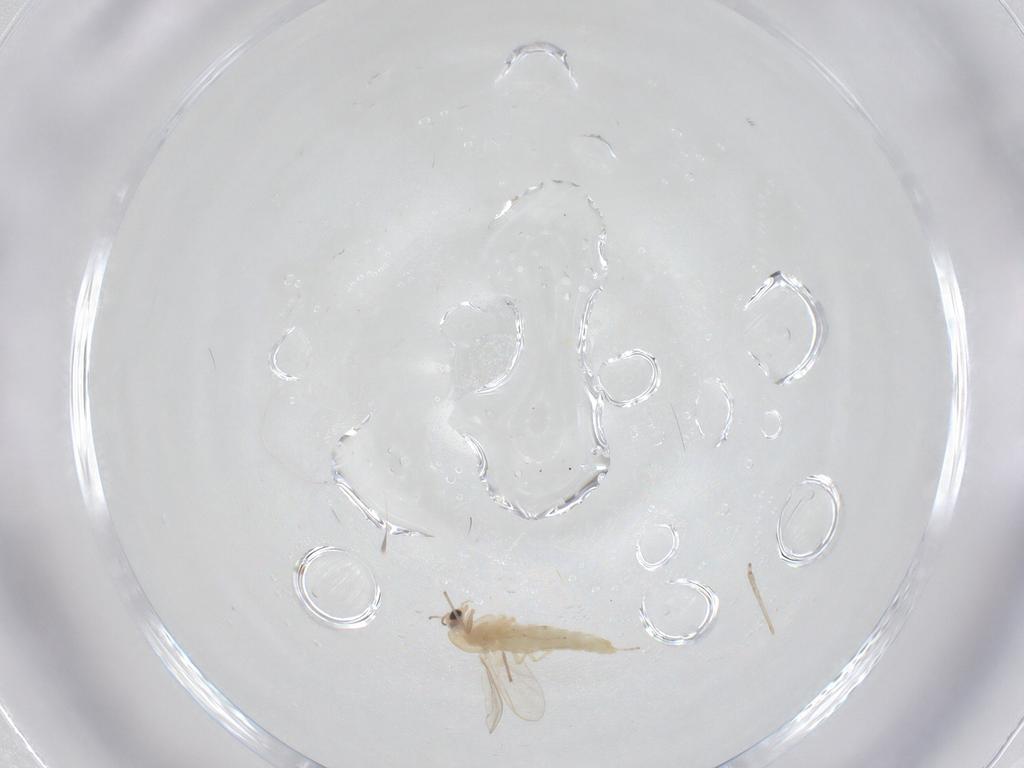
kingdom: Animalia
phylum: Arthropoda
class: Insecta
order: Diptera
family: Chironomidae
